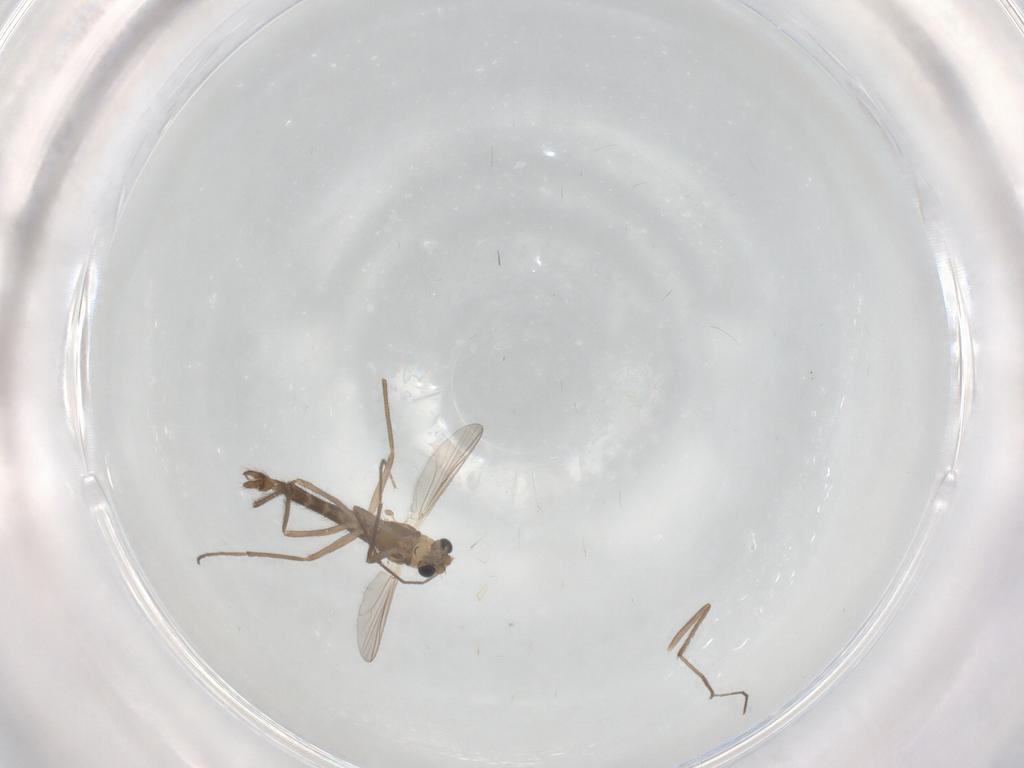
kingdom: Animalia
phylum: Arthropoda
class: Insecta
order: Diptera
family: Chironomidae
